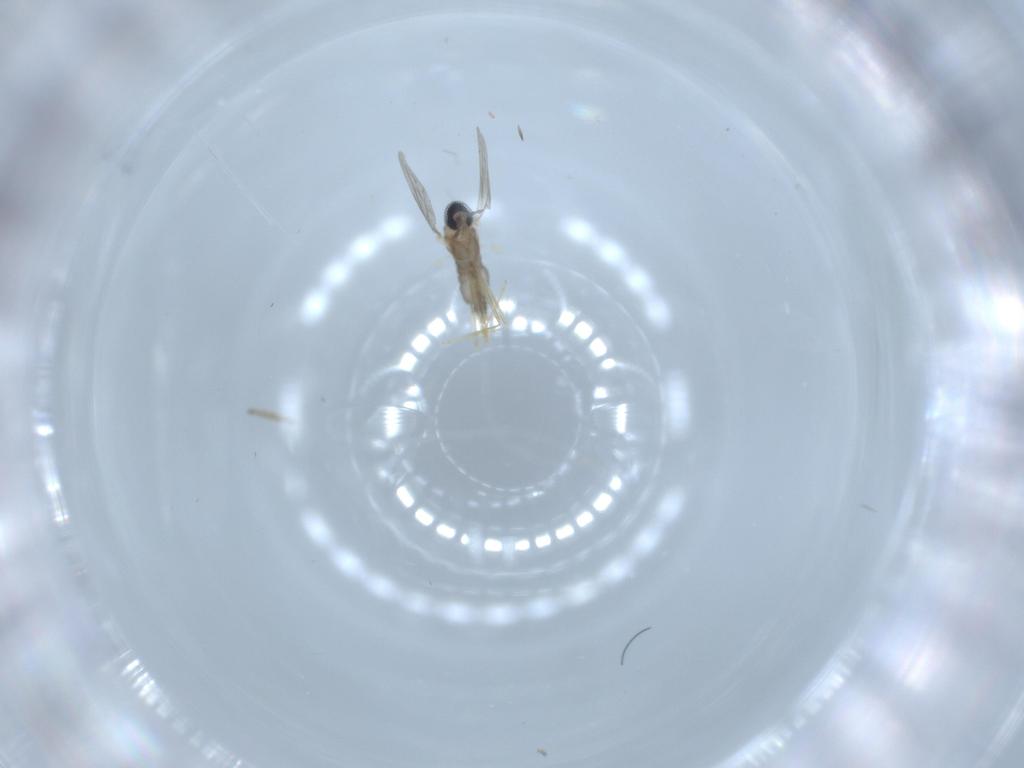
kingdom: Animalia
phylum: Arthropoda
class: Insecta
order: Diptera
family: Cecidomyiidae
